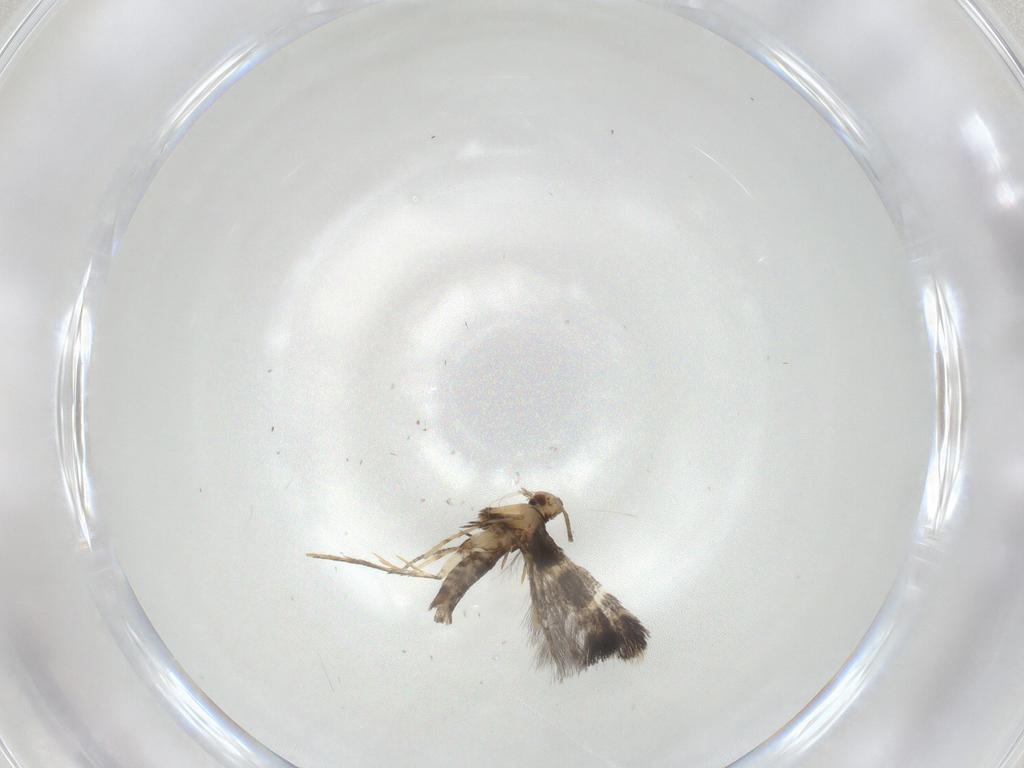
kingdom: Animalia
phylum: Arthropoda
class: Insecta
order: Lepidoptera
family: Gracillariidae
